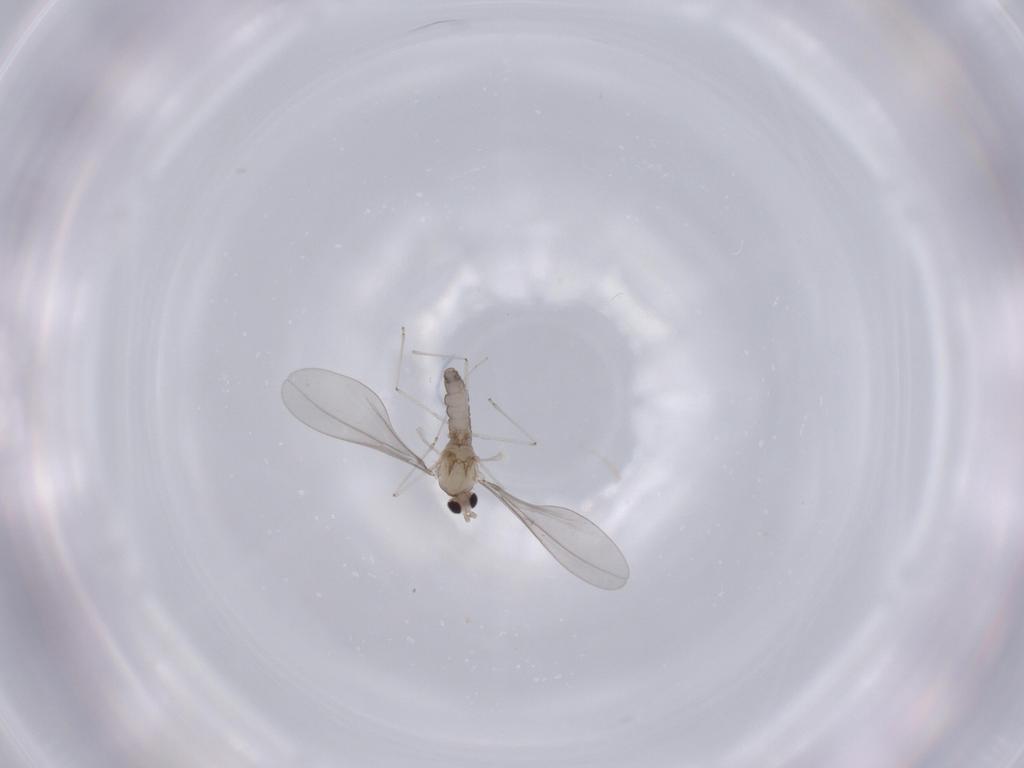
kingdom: Animalia
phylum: Arthropoda
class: Insecta
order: Diptera
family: Cecidomyiidae
